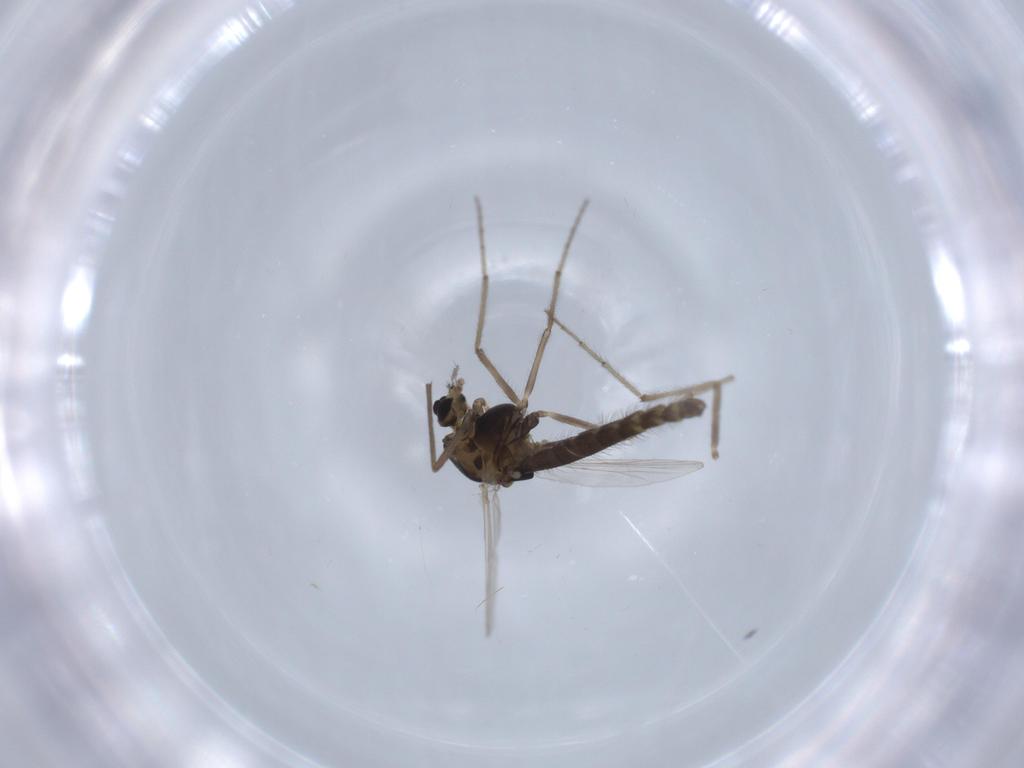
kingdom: Animalia
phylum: Arthropoda
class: Insecta
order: Diptera
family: Chironomidae
